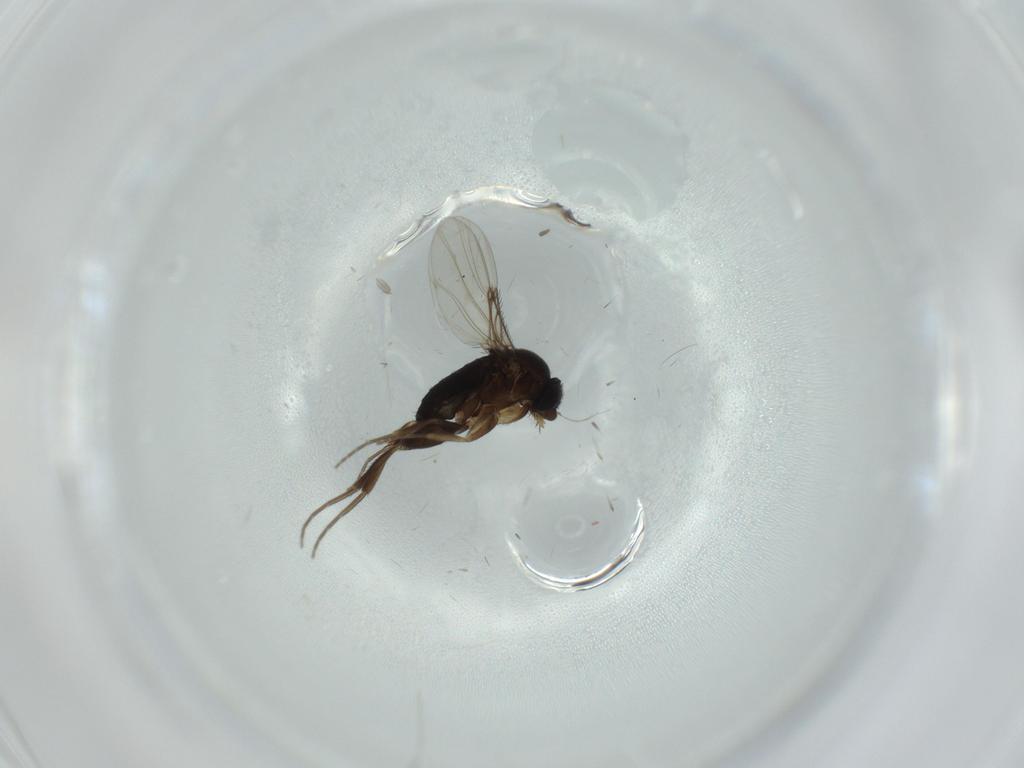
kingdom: Animalia
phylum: Arthropoda
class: Insecta
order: Diptera
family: Phoridae
